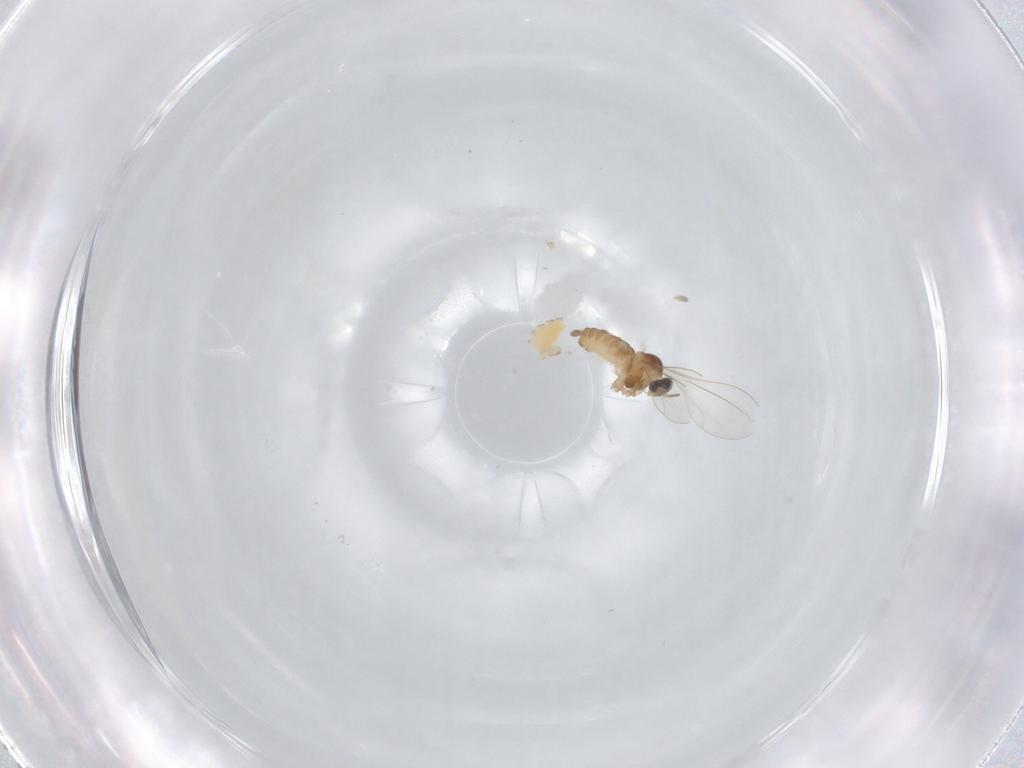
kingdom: Animalia
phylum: Arthropoda
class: Insecta
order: Diptera
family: Cecidomyiidae
